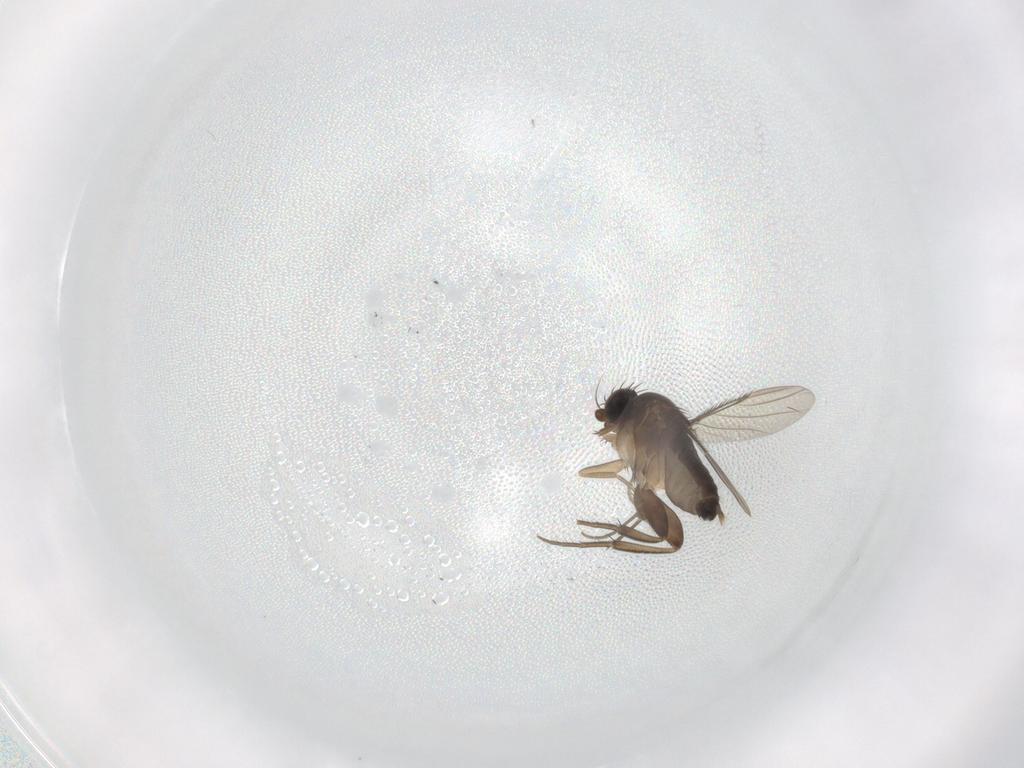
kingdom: Animalia
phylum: Arthropoda
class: Insecta
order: Diptera
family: Phoridae
